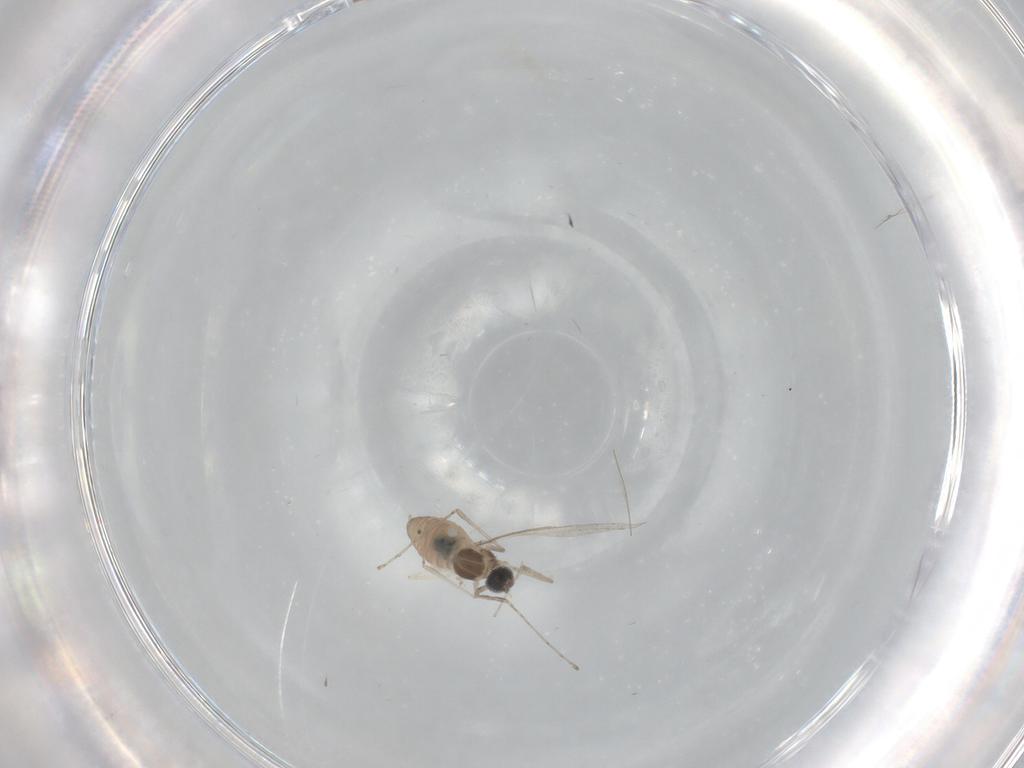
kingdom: Animalia
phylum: Arthropoda
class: Insecta
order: Diptera
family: Cecidomyiidae
